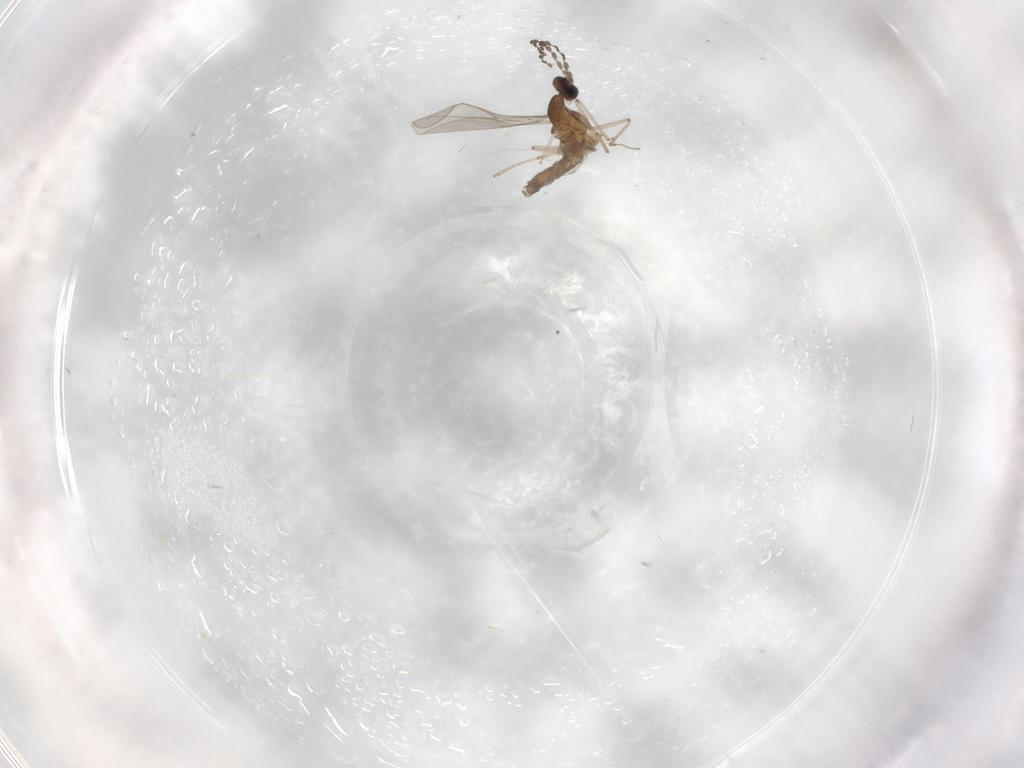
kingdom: Animalia
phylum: Arthropoda
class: Insecta
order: Diptera
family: Cecidomyiidae
